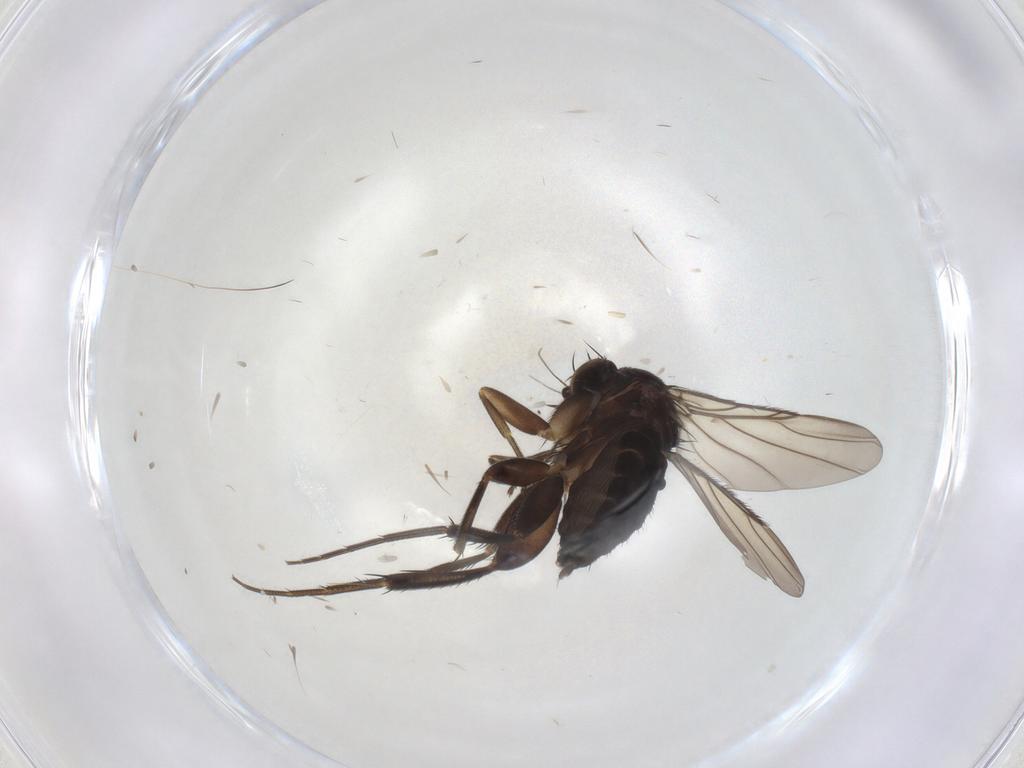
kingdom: Animalia
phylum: Arthropoda
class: Insecta
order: Diptera
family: Phoridae
